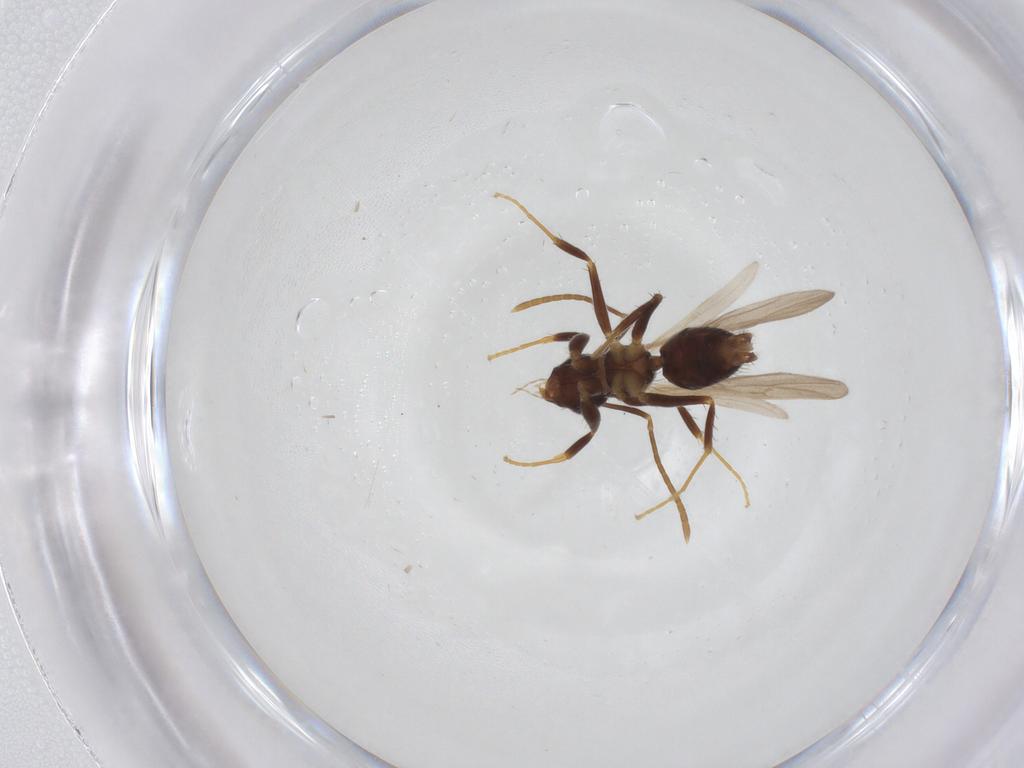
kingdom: Animalia
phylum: Arthropoda
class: Insecta
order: Hymenoptera
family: Formicidae
